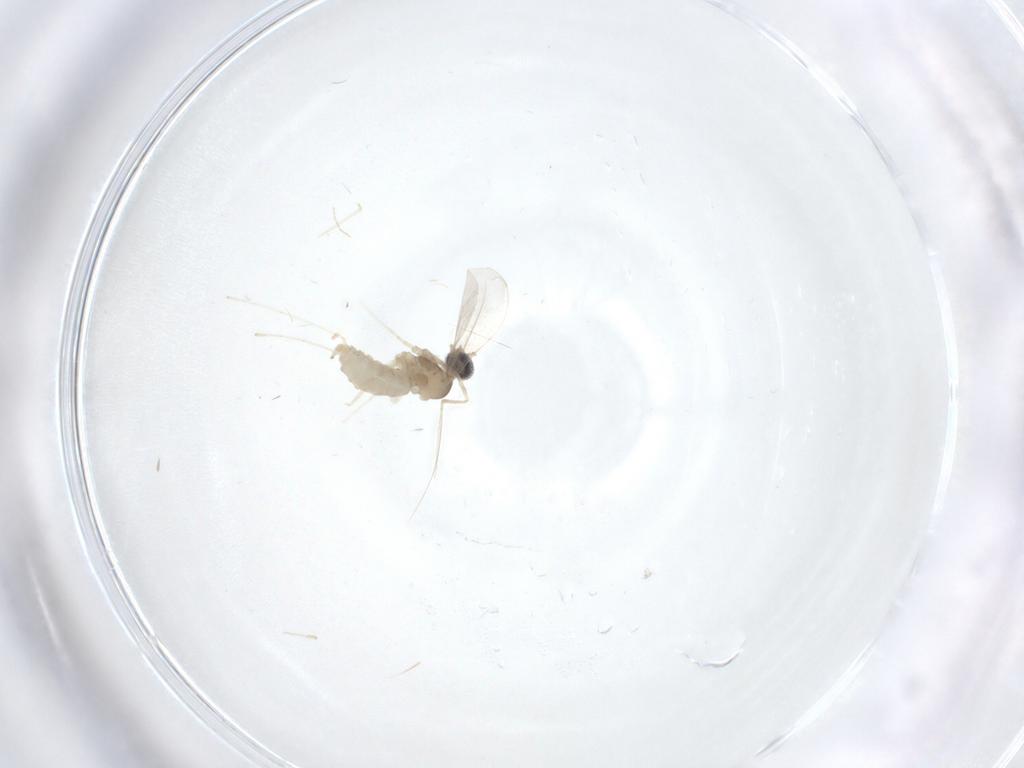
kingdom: Animalia
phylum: Arthropoda
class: Insecta
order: Diptera
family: Cecidomyiidae
